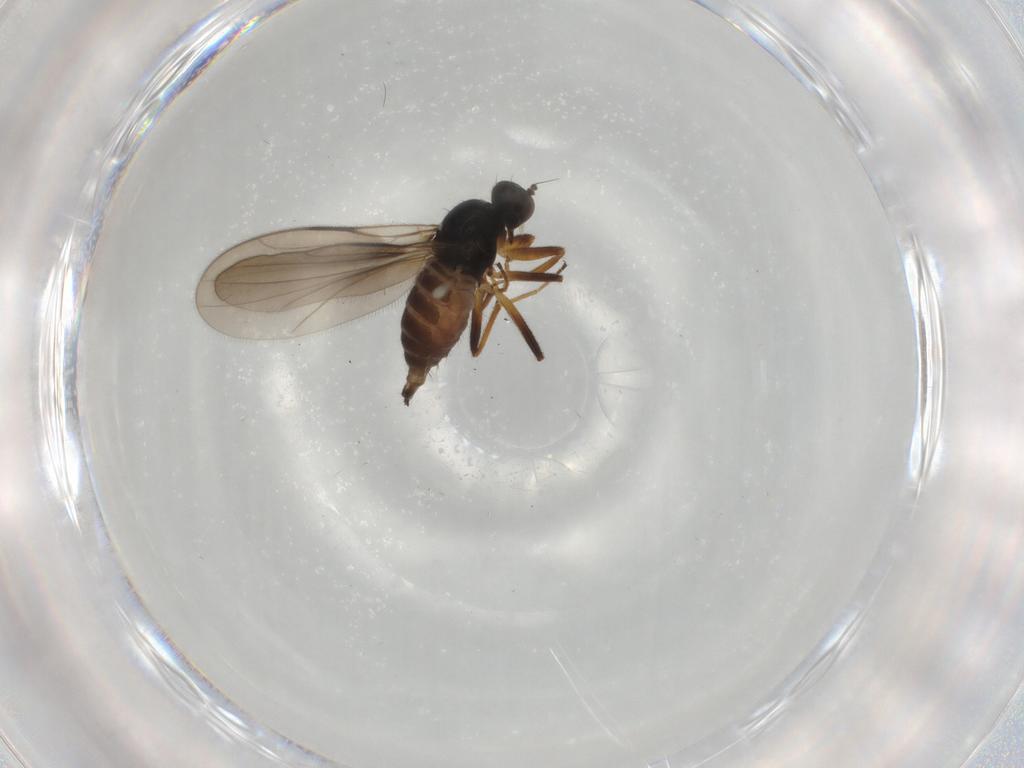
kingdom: Animalia
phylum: Arthropoda
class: Insecta
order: Diptera
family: Hybotidae
